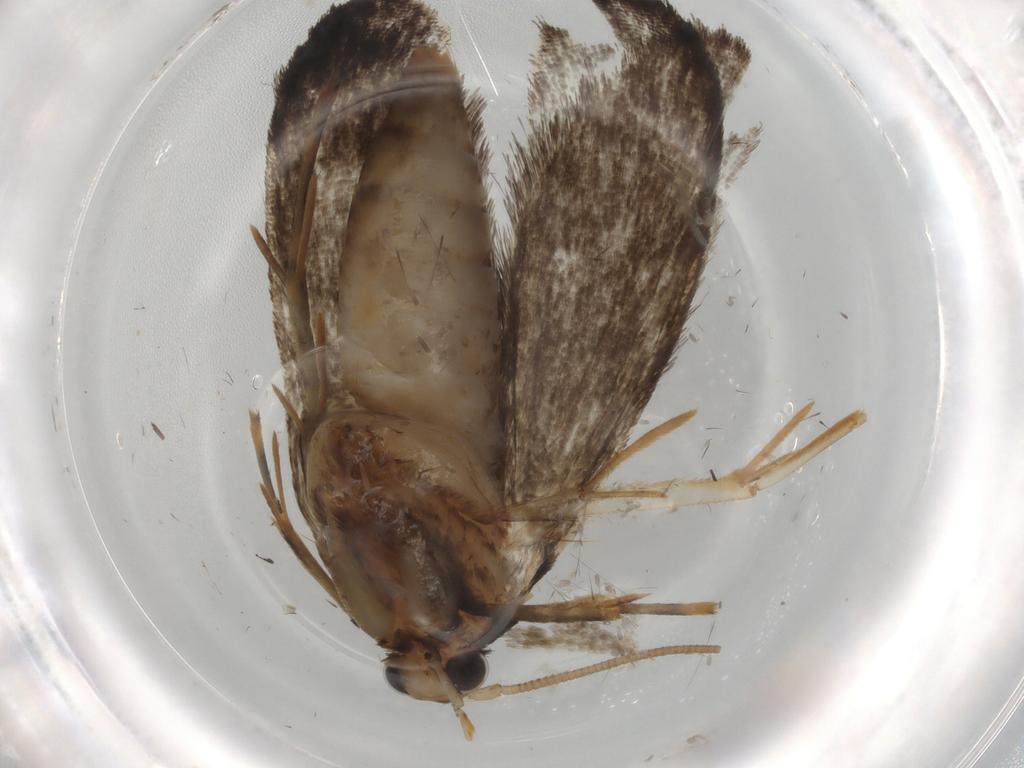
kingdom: Animalia
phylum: Arthropoda
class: Insecta
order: Lepidoptera
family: Tineidae
